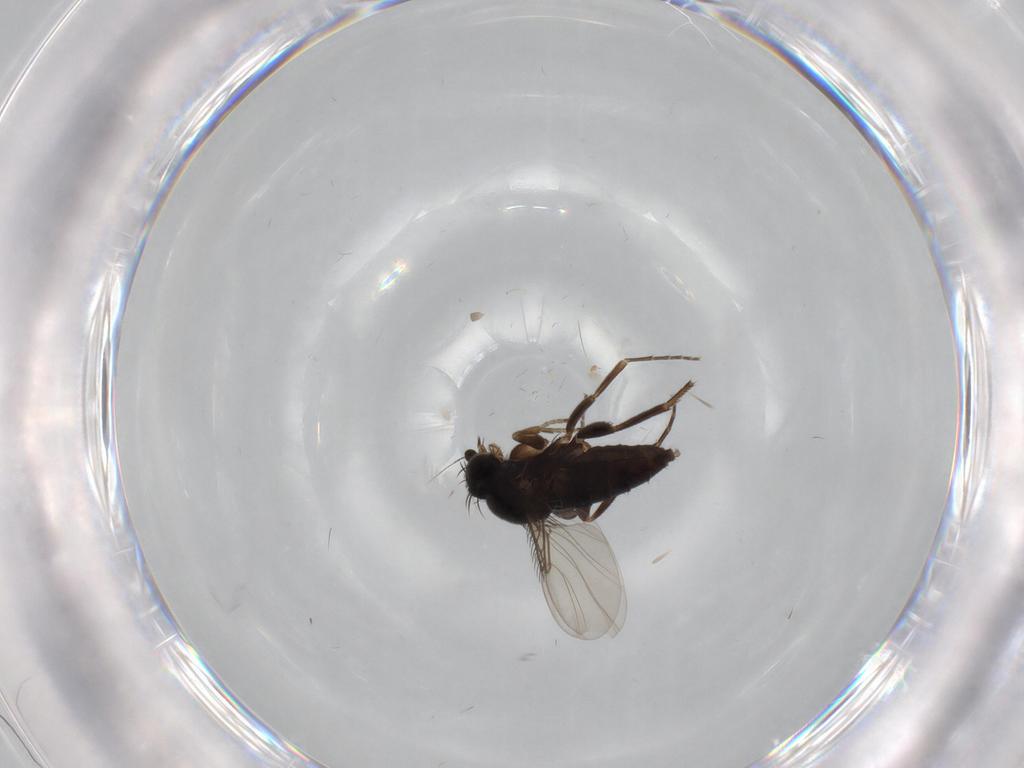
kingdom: Animalia
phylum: Arthropoda
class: Insecta
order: Diptera
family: Phoridae
